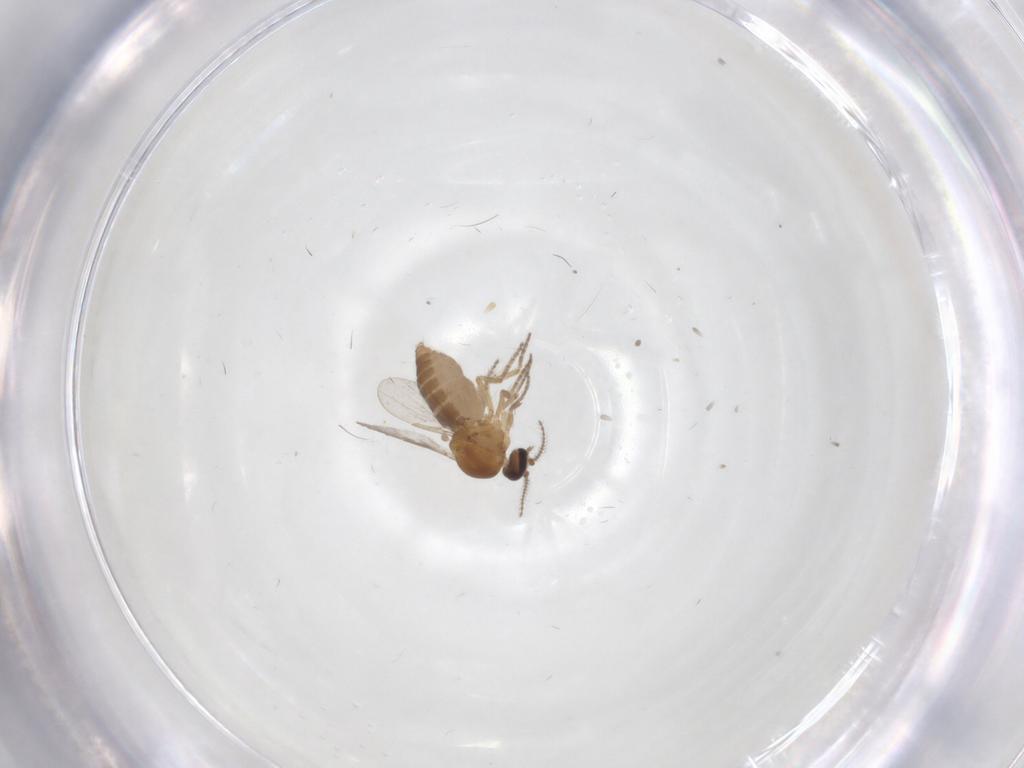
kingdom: Animalia
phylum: Arthropoda
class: Insecta
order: Diptera
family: Ceratopogonidae
